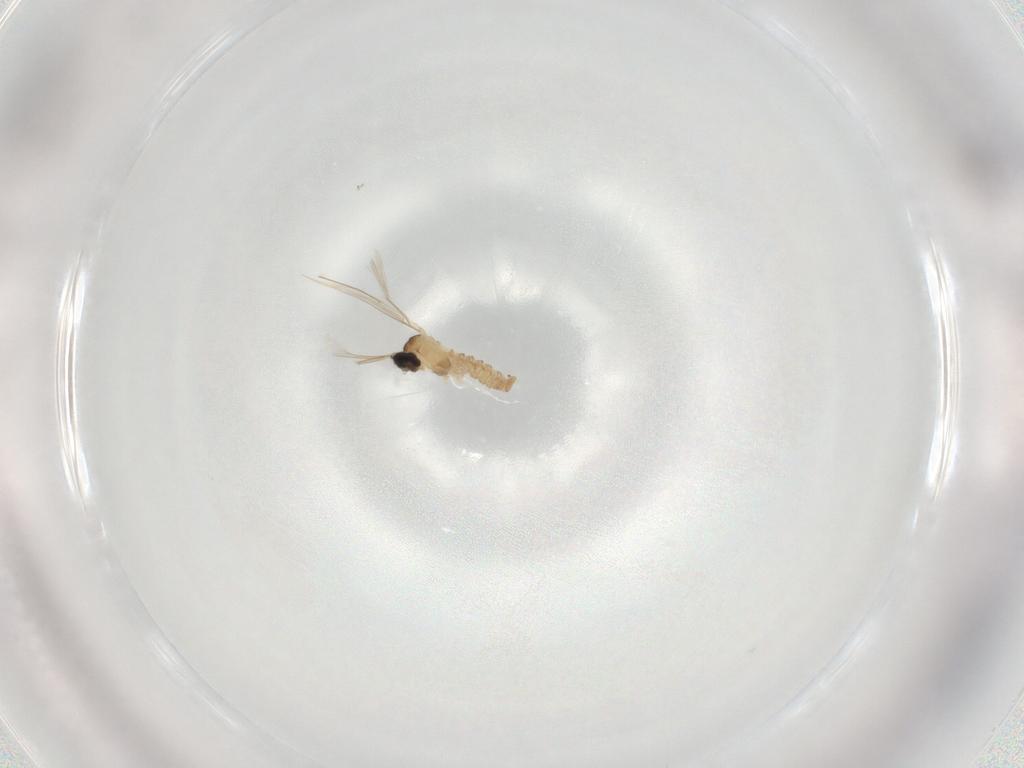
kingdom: Animalia
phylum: Arthropoda
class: Insecta
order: Diptera
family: Cecidomyiidae
